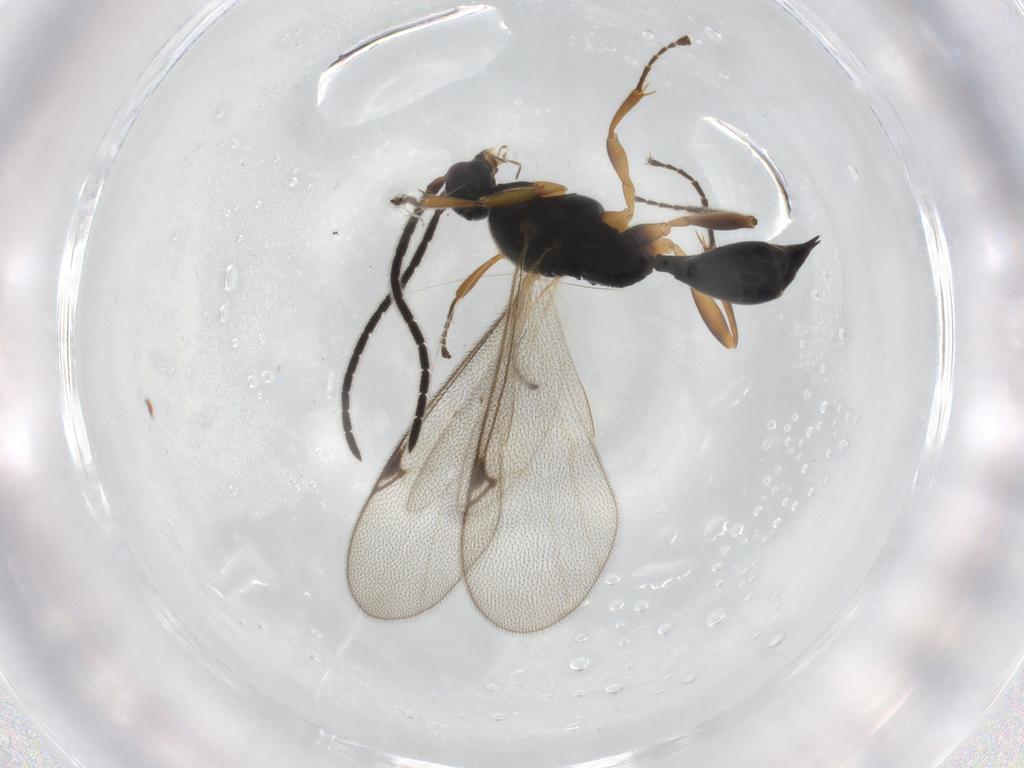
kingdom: Animalia
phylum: Arthropoda
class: Insecta
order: Hymenoptera
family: Proctotrupidae
